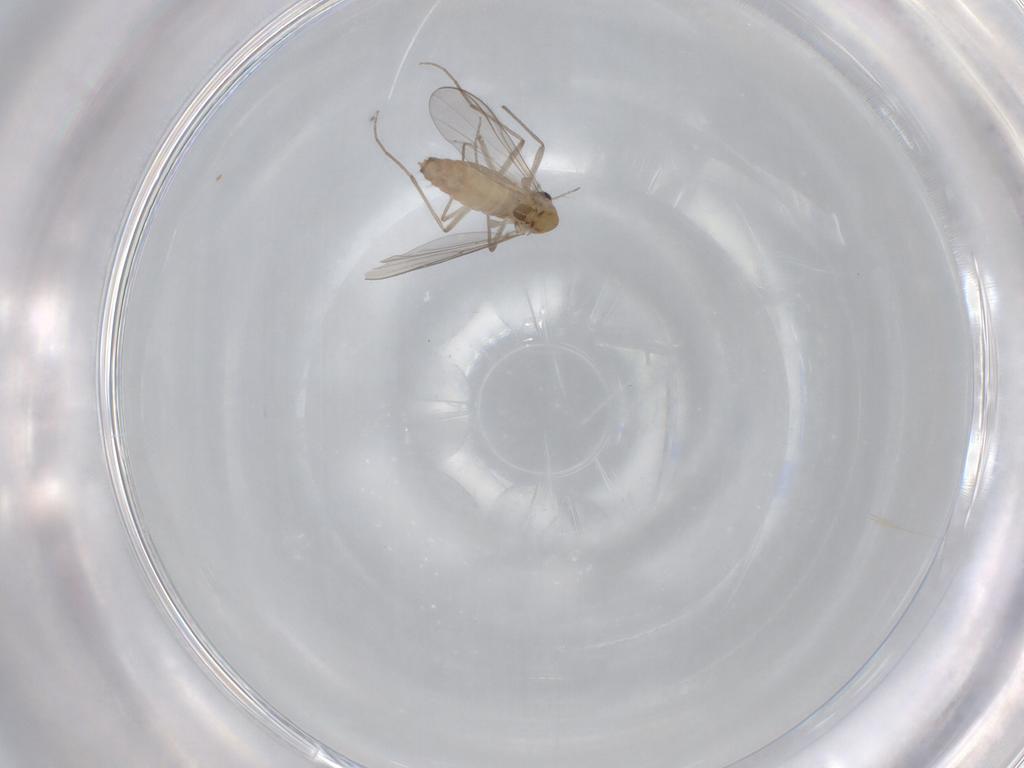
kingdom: Animalia
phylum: Arthropoda
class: Insecta
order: Diptera
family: Cecidomyiidae
